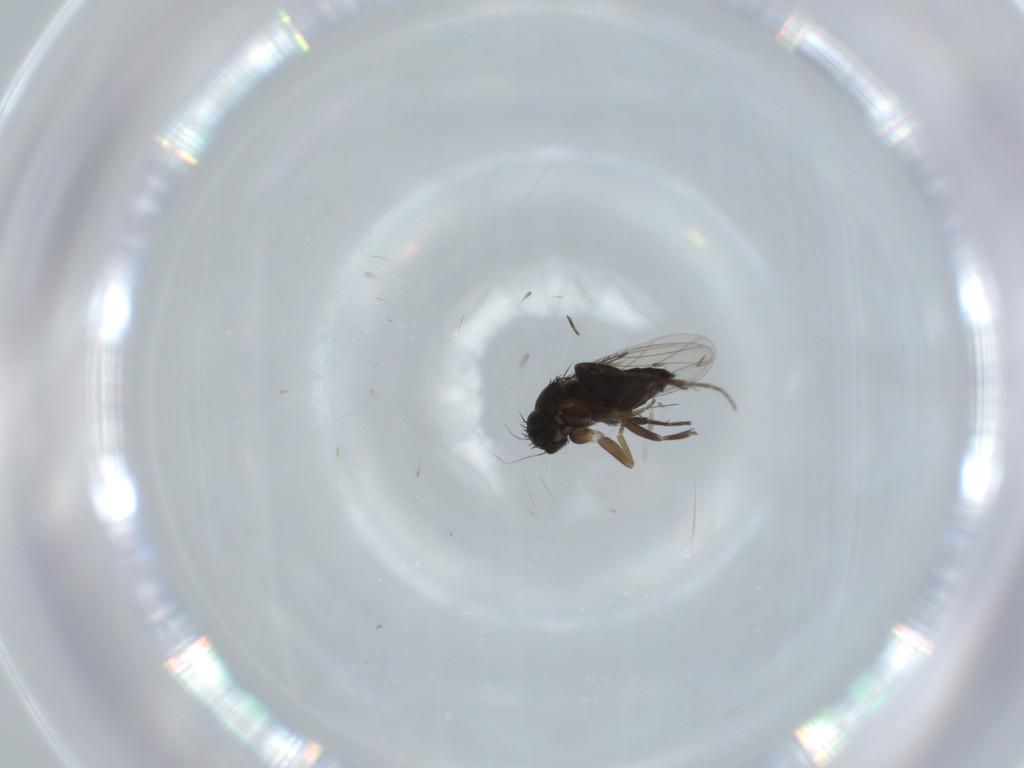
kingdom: Animalia
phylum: Arthropoda
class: Insecta
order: Diptera
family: Phoridae
